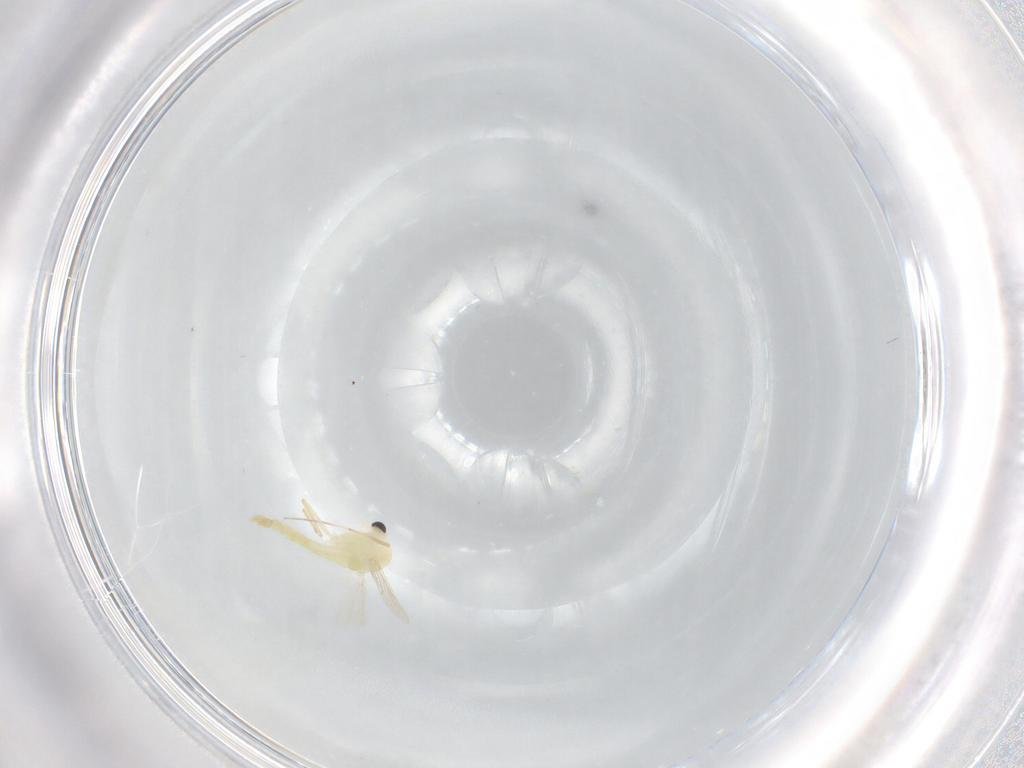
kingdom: Animalia
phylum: Arthropoda
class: Insecta
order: Diptera
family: Chironomidae
